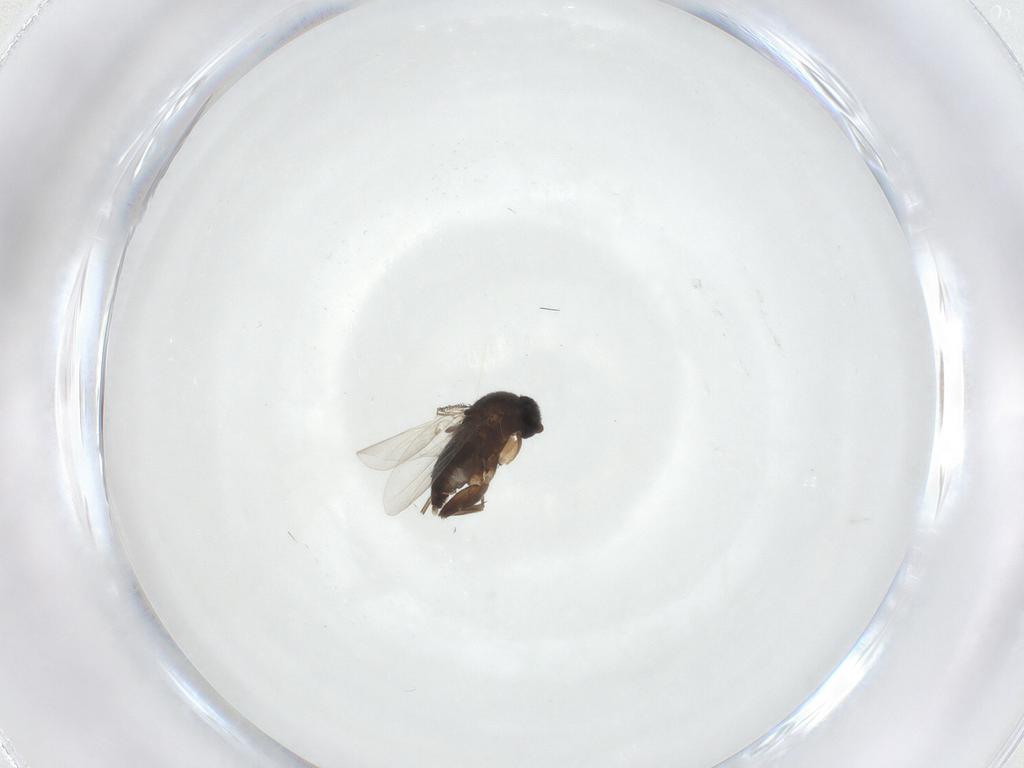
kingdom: Animalia
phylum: Arthropoda
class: Insecta
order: Diptera
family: Phoridae
